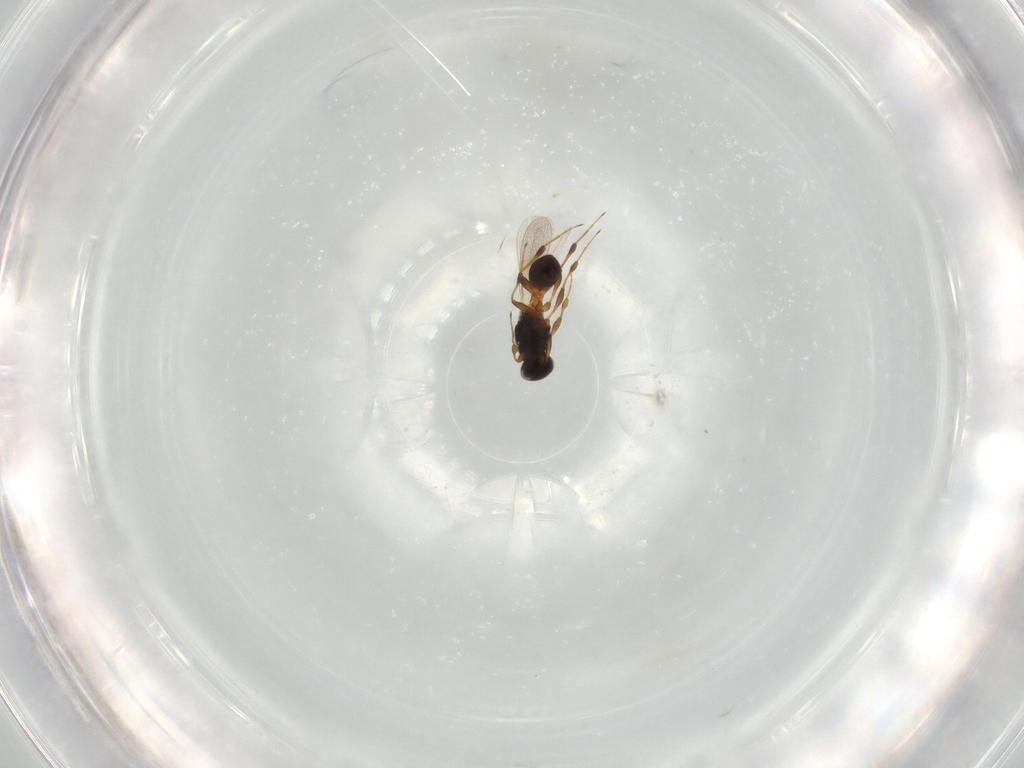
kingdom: Animalia
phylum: Arthropoda
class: Insecta
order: Hymenoptera
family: Platygastridae
